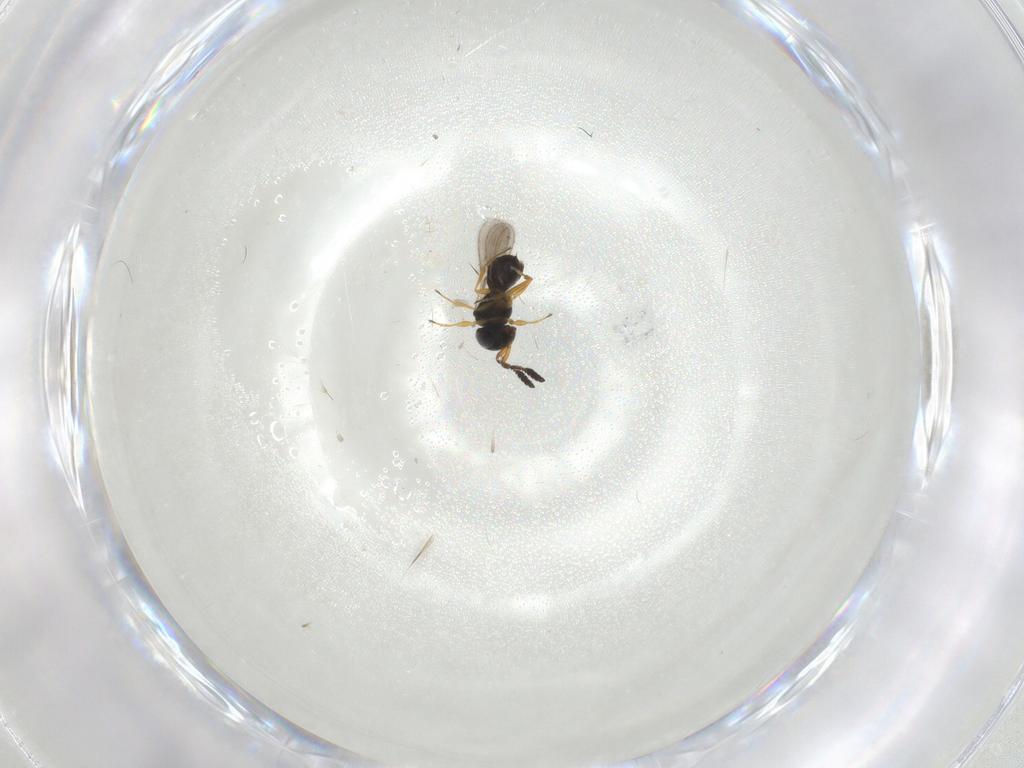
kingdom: Animalia
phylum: Arthropoda
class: Insecta
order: Hymenoptera
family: Scelionidae
